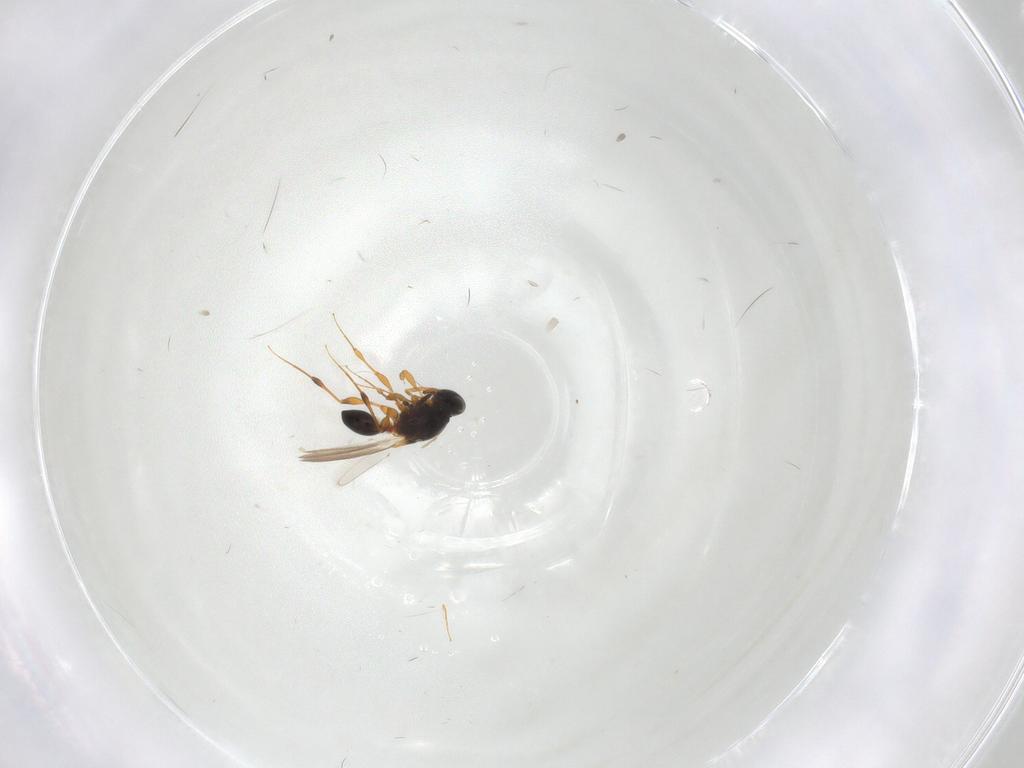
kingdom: Animalia
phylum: Arthropoda
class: Insecta
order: Hymenoptera
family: Platygastridae
